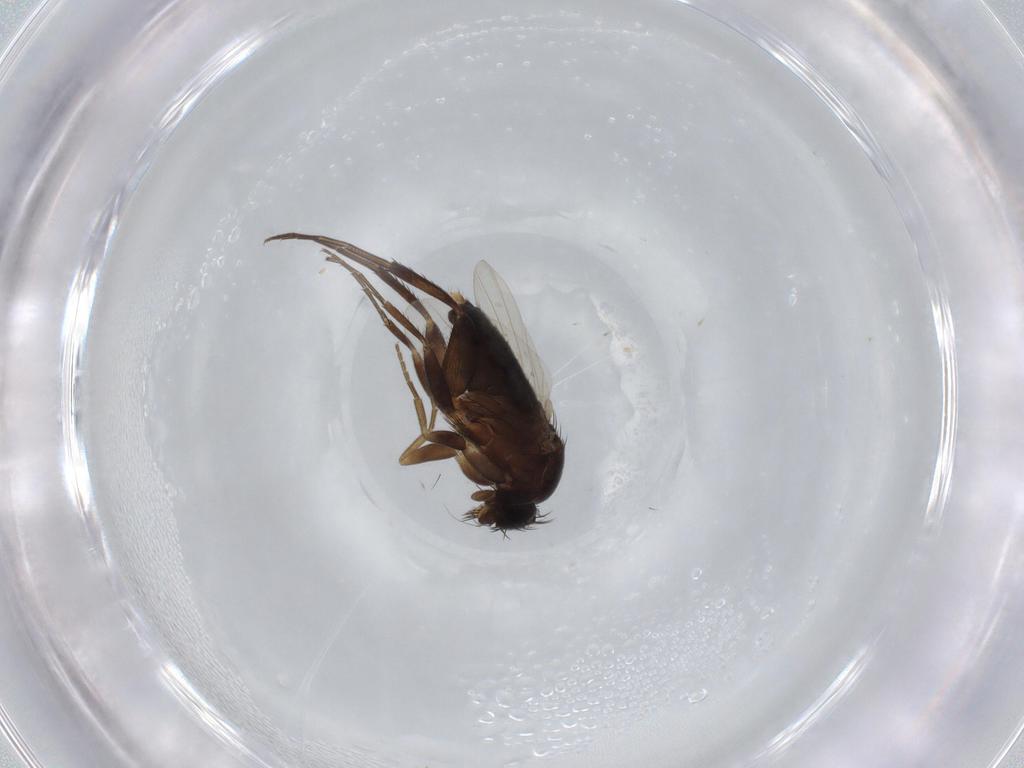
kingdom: Animalia
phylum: Arthropoda
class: Insecta
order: Diptera
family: Phoridae
